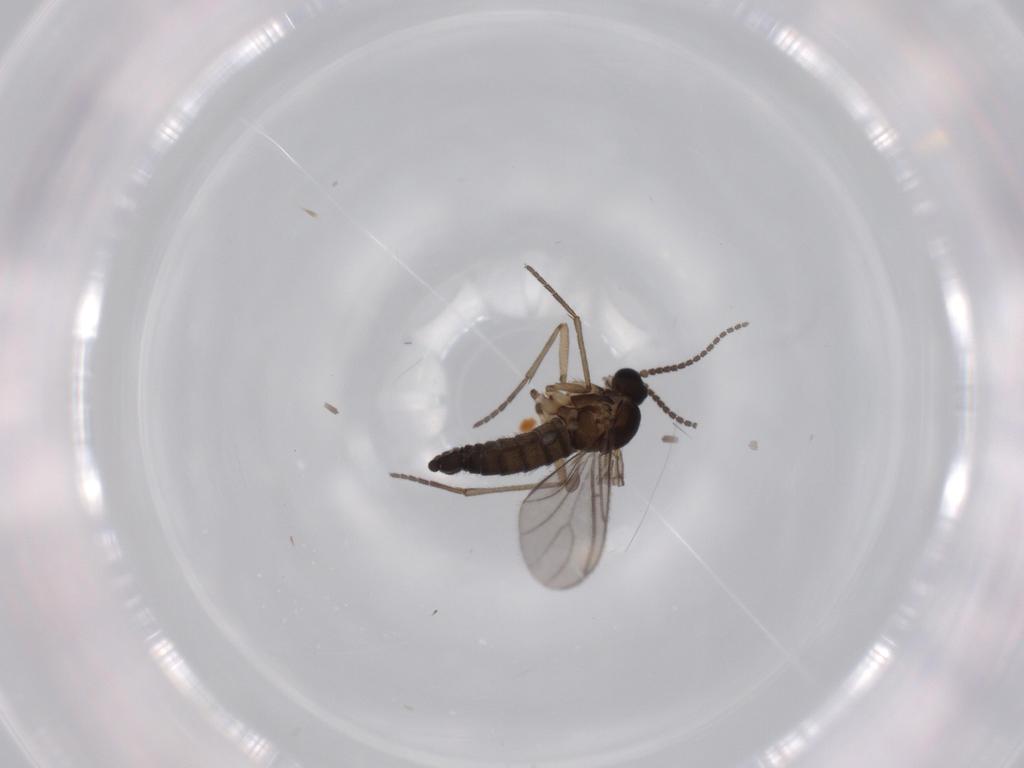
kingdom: Animalia
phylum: Arthropoda
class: Insecta
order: Diptera
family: Sciaridae
